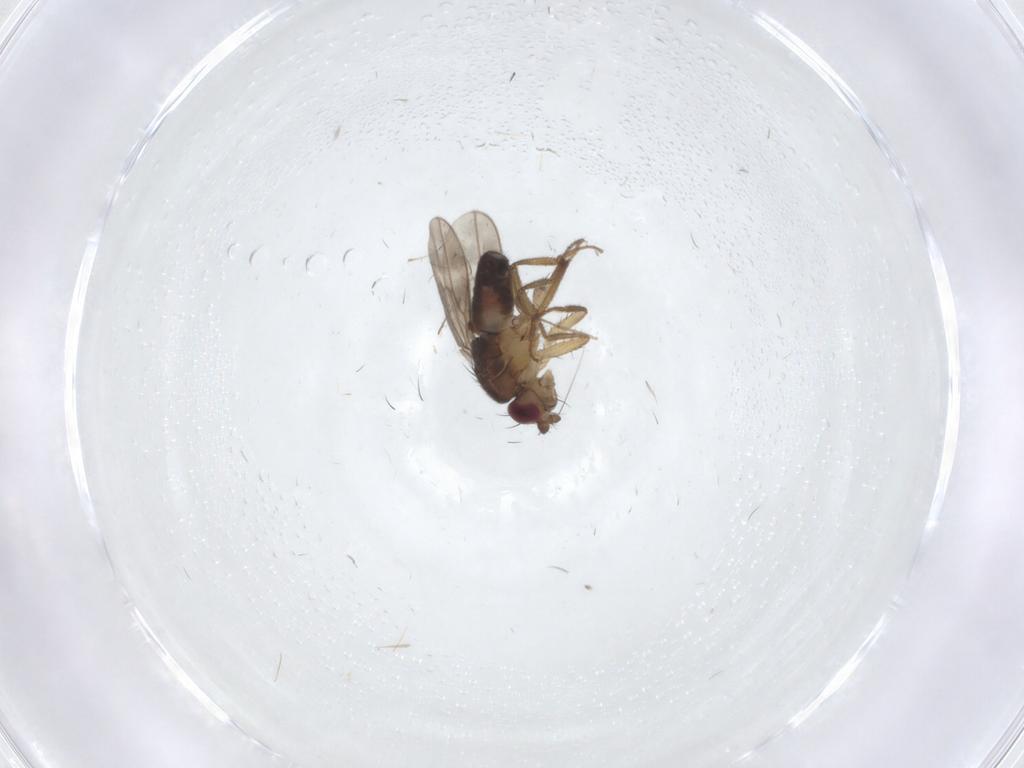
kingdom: Animalia
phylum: Arthropoda
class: Insecta
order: Diptera
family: Sphaeroceridae
